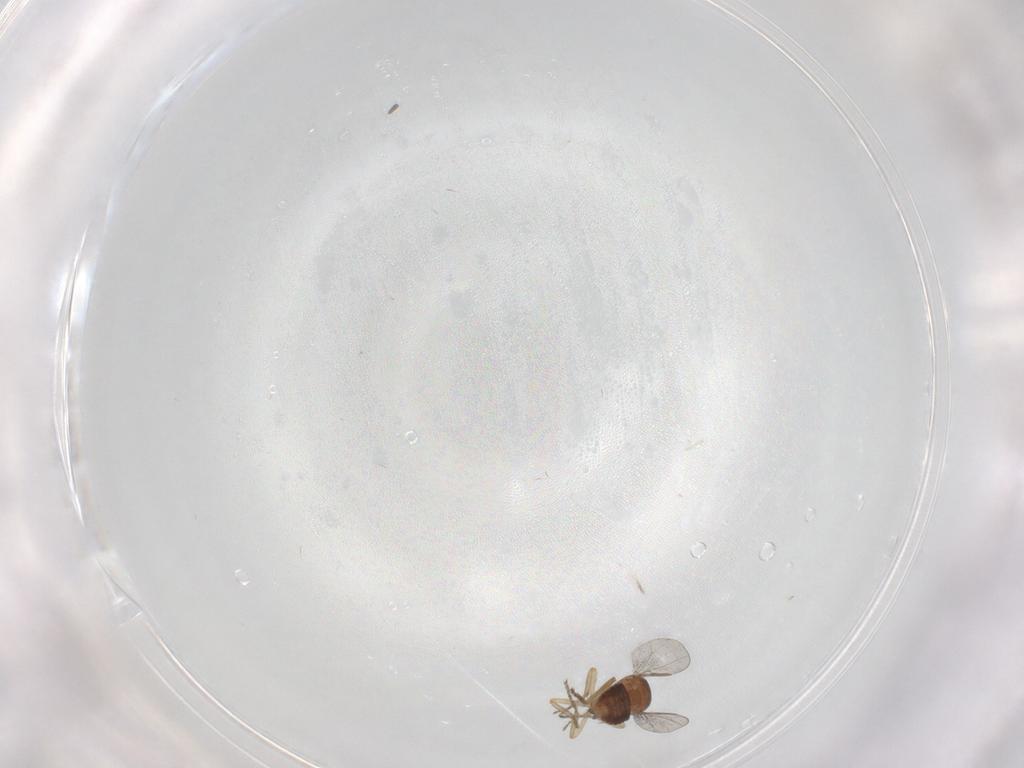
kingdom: Animalia
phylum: Arthropoda
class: Insecta
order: Diptera
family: Ceratopogonidae
